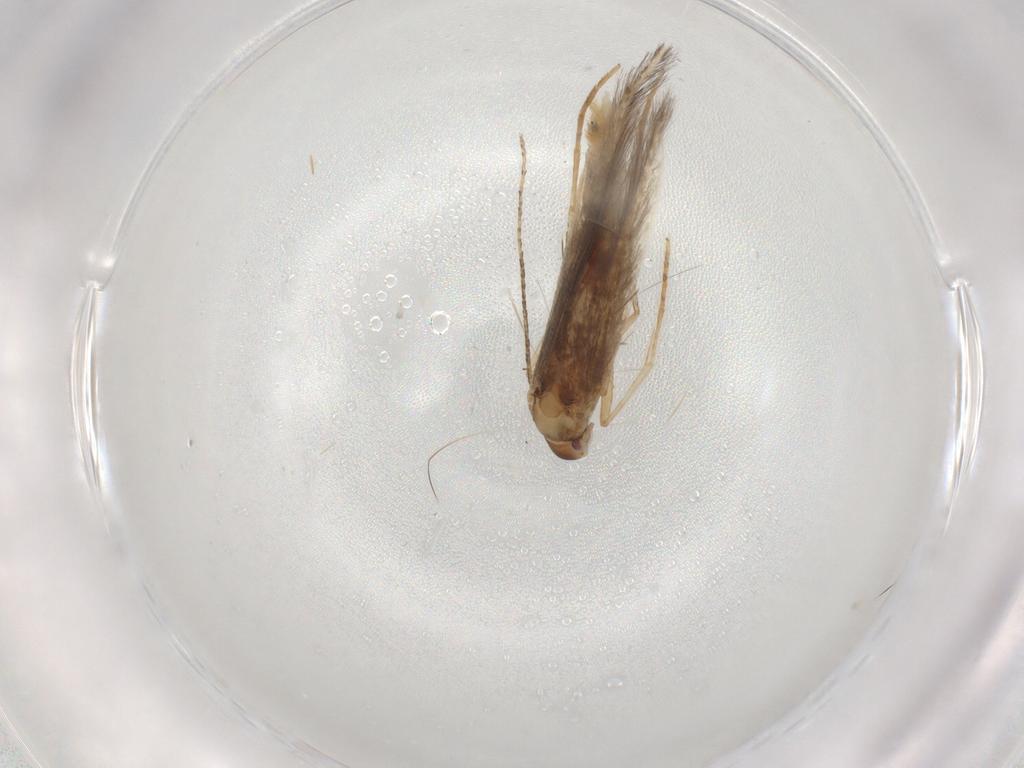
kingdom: Animalia
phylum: Arthropoda
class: Insecta
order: Lepidoptera
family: Cosmopterigidae
